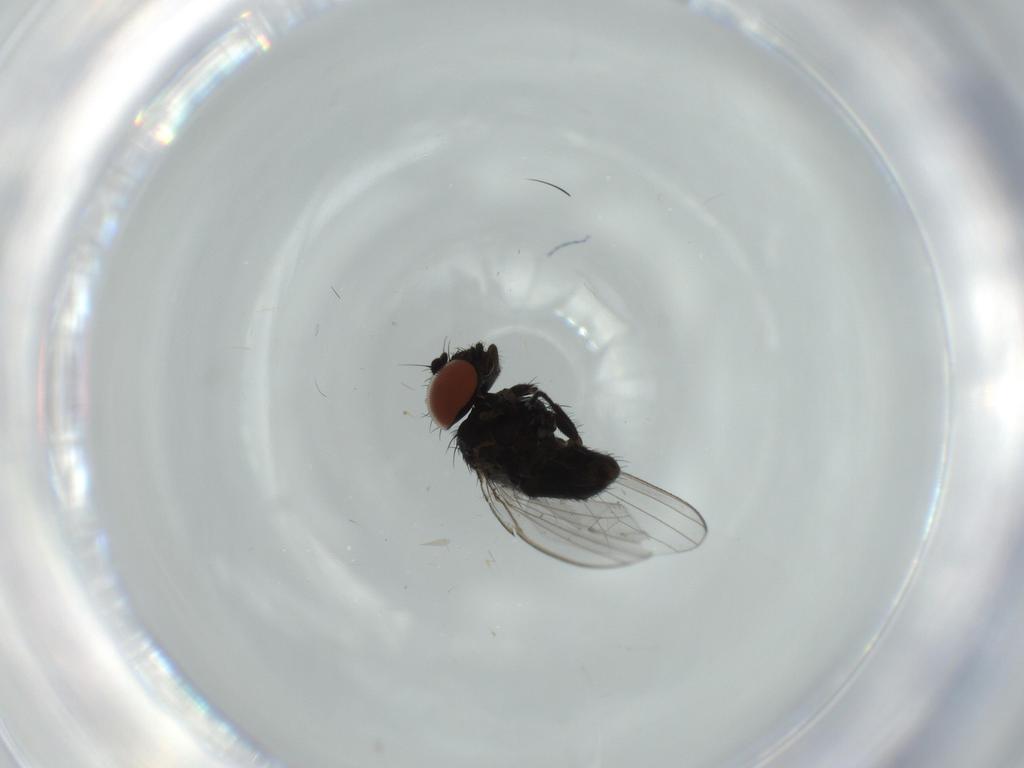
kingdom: Animalia
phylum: Arthropoda
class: Insecta
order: Diptera
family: Milichiidae
